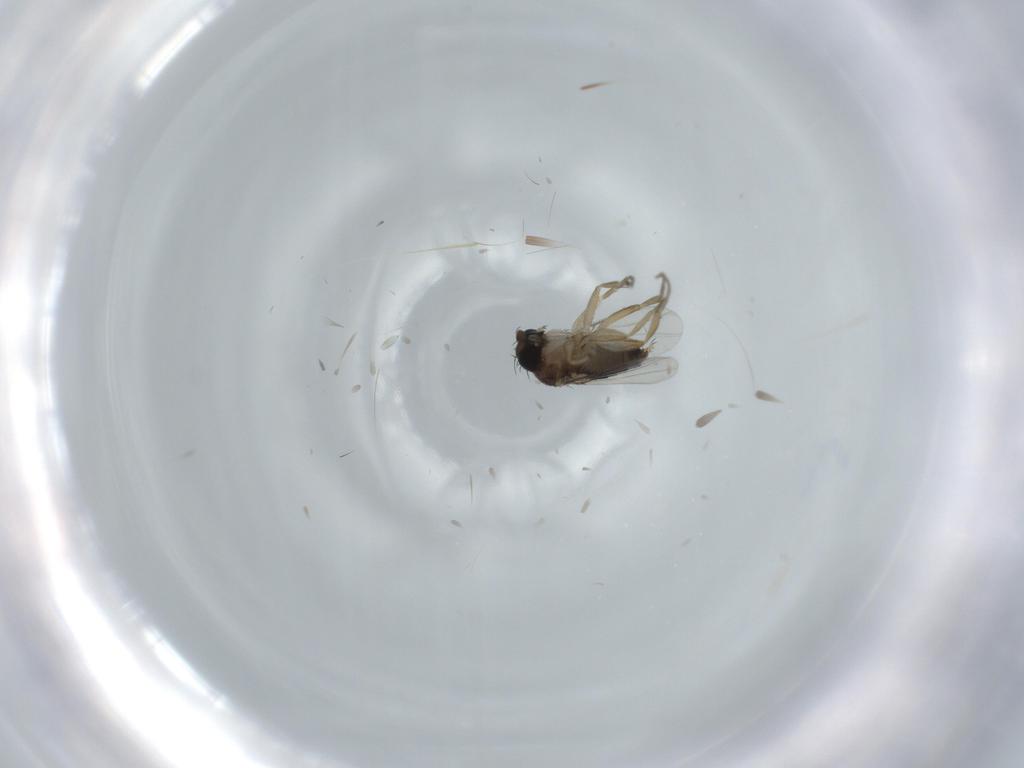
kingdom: Animalia
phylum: Arthropoda
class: Insecta
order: Diptera
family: Phoridae
